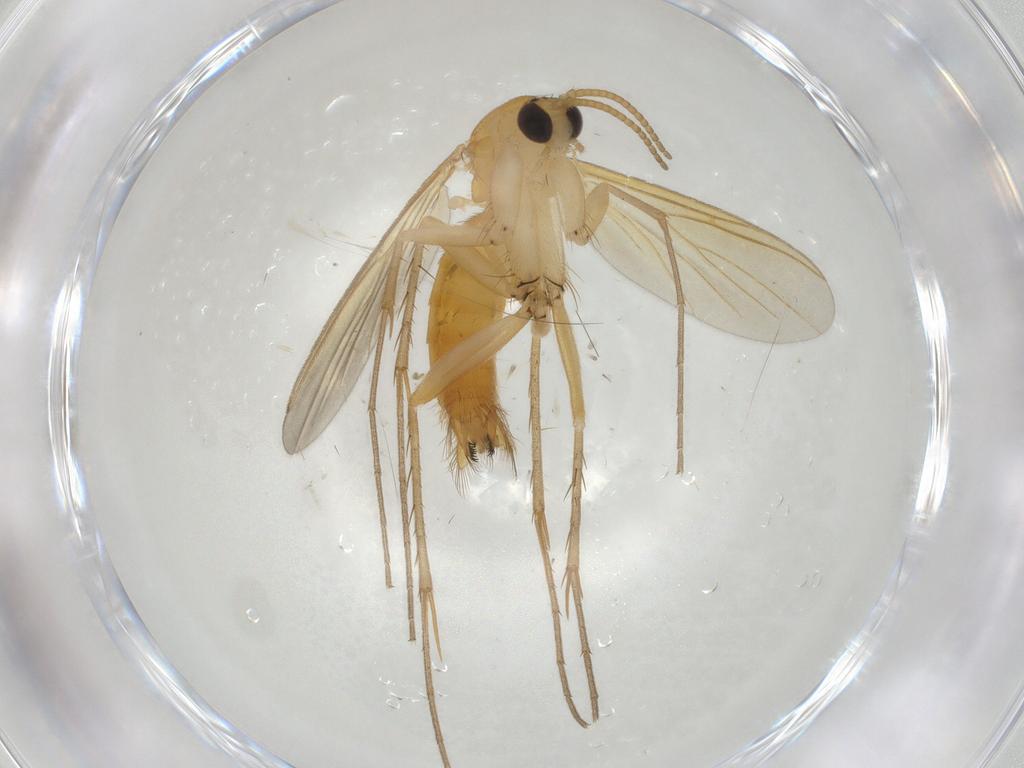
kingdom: Animalia
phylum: Arthropoda
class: Insecta
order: Diptera
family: Mycetophilidae
